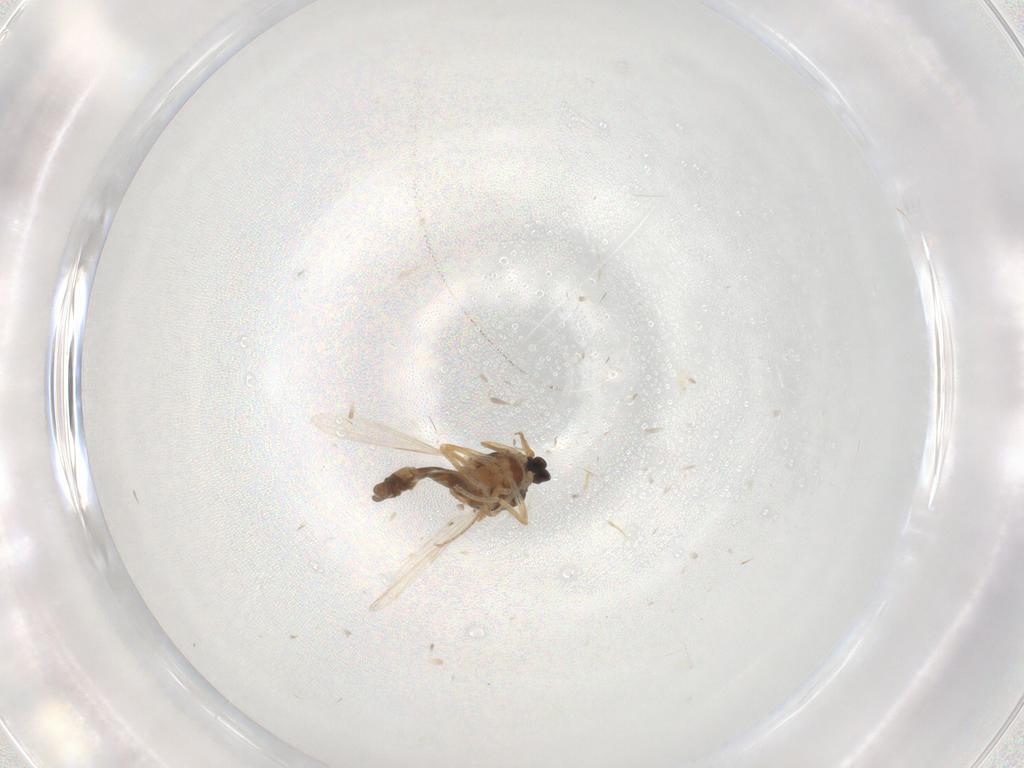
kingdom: Animalia
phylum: Arthropoda
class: Insecta
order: Diptera
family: Ceratopogonidae
